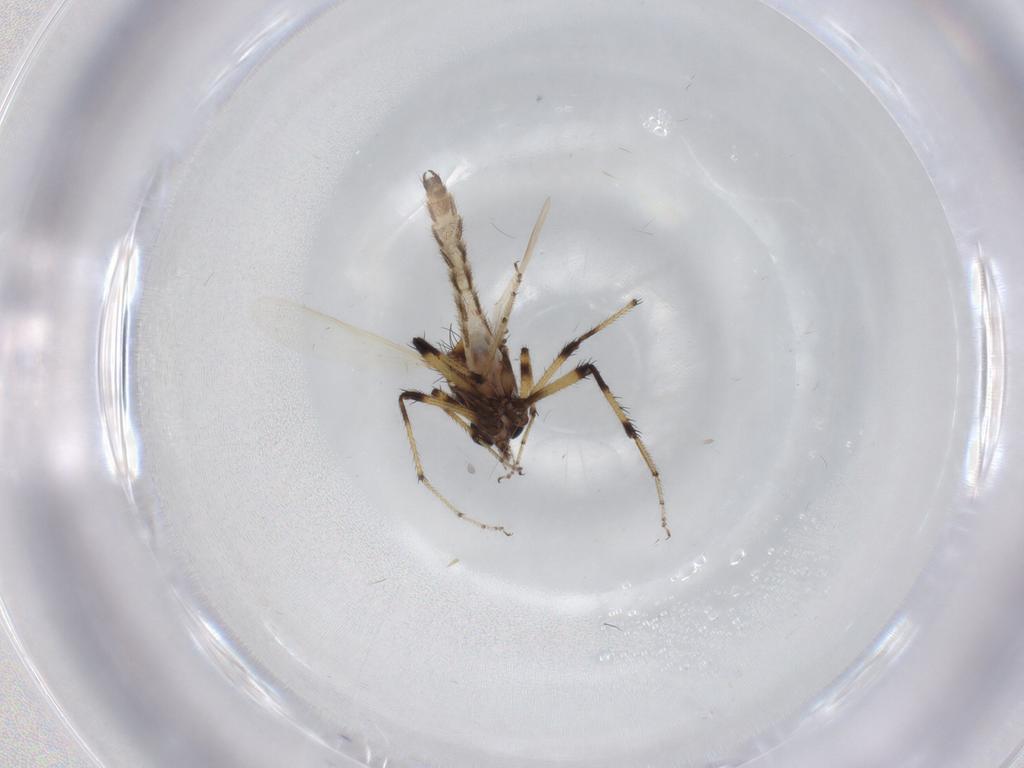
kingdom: Animalia
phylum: Arthropoda
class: Insecta
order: Diptera
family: Ceratopogonidae
